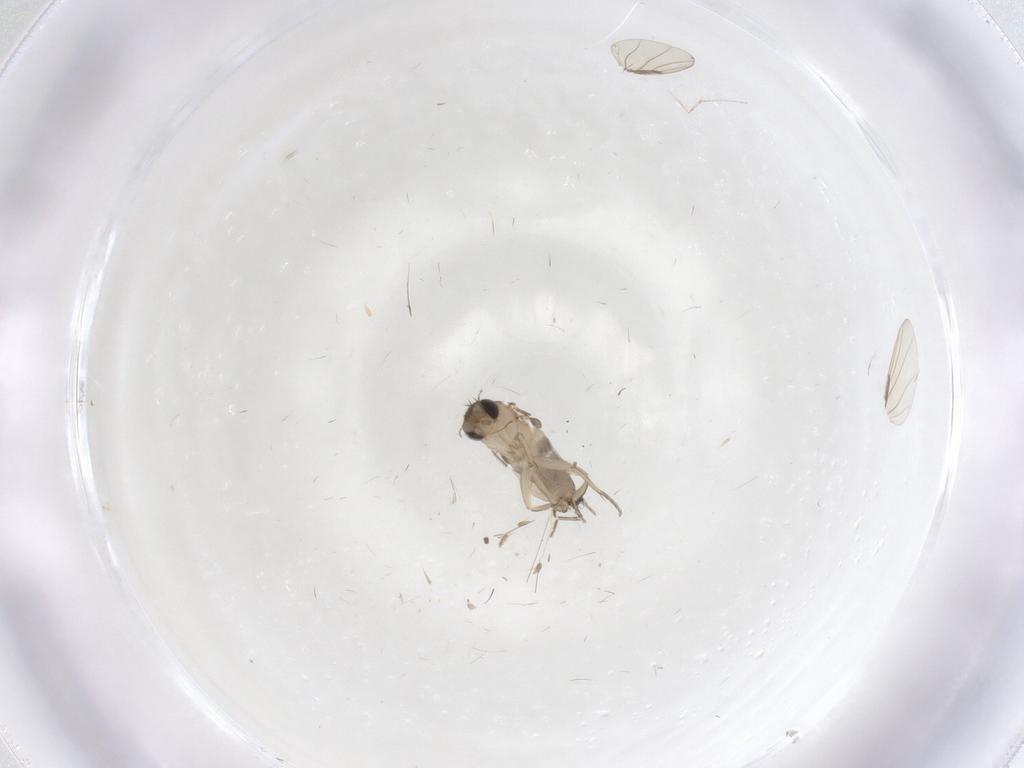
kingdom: Animalia
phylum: Arthropoda
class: Insecta
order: Diptera
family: Phoridae
